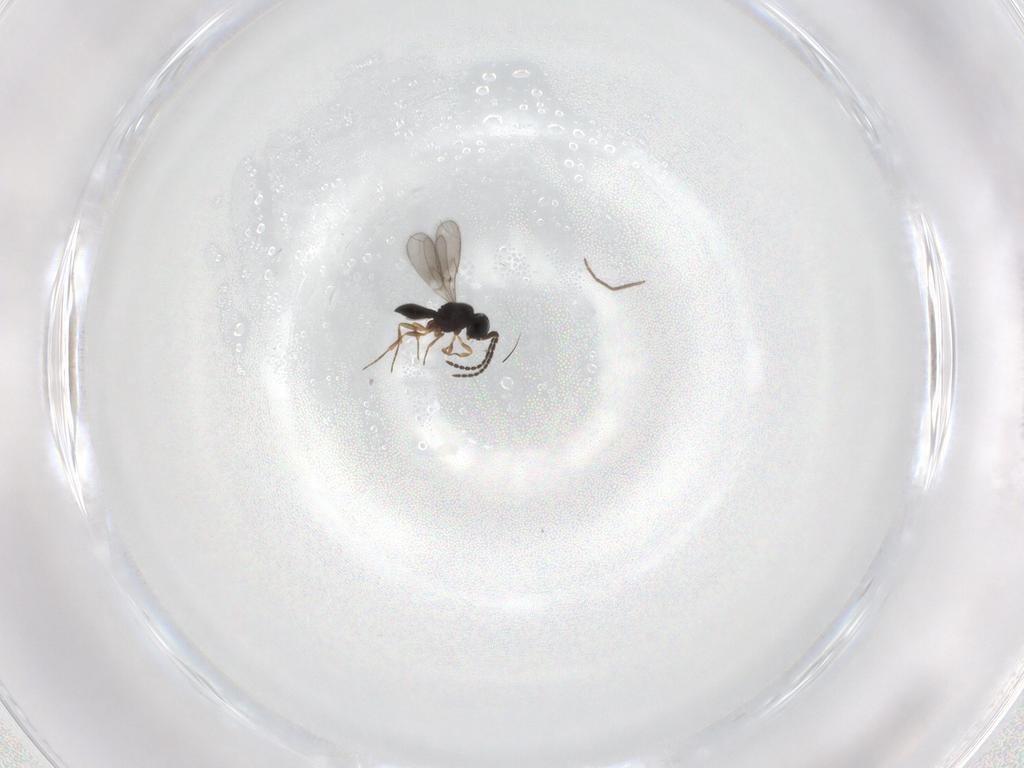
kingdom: Animalia
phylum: Arthropoda
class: Insecta
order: Hymenoptera
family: Scelionidae
